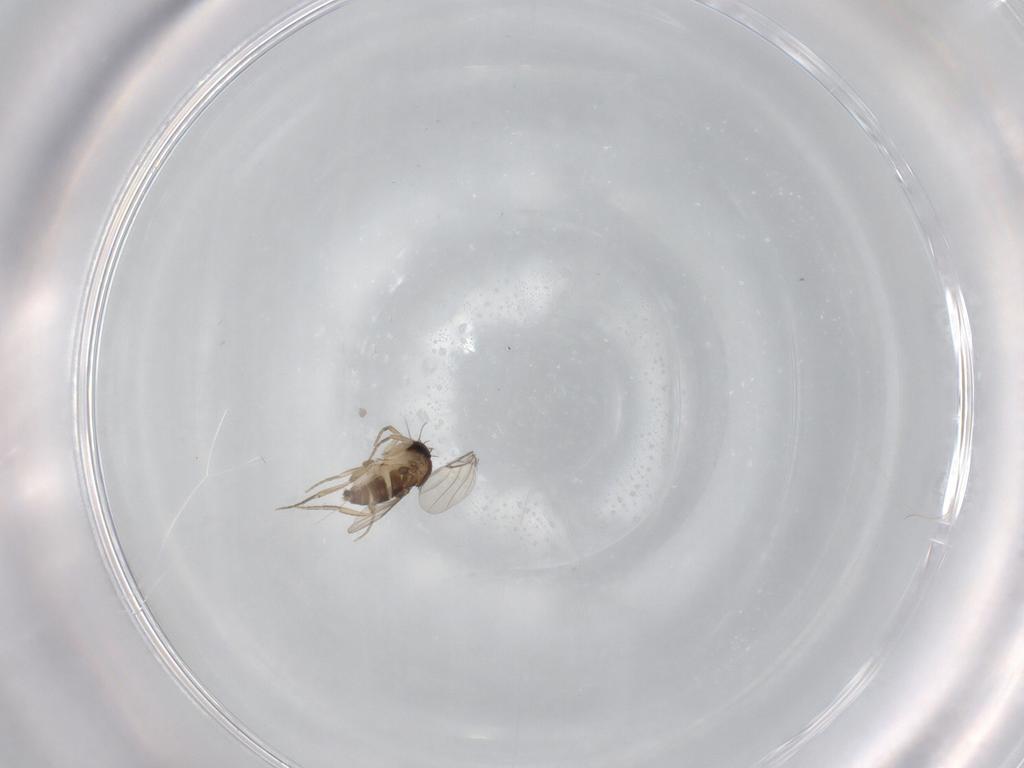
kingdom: Animalia
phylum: Arthropoda
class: Insecta
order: Diptera
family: Phoridae
